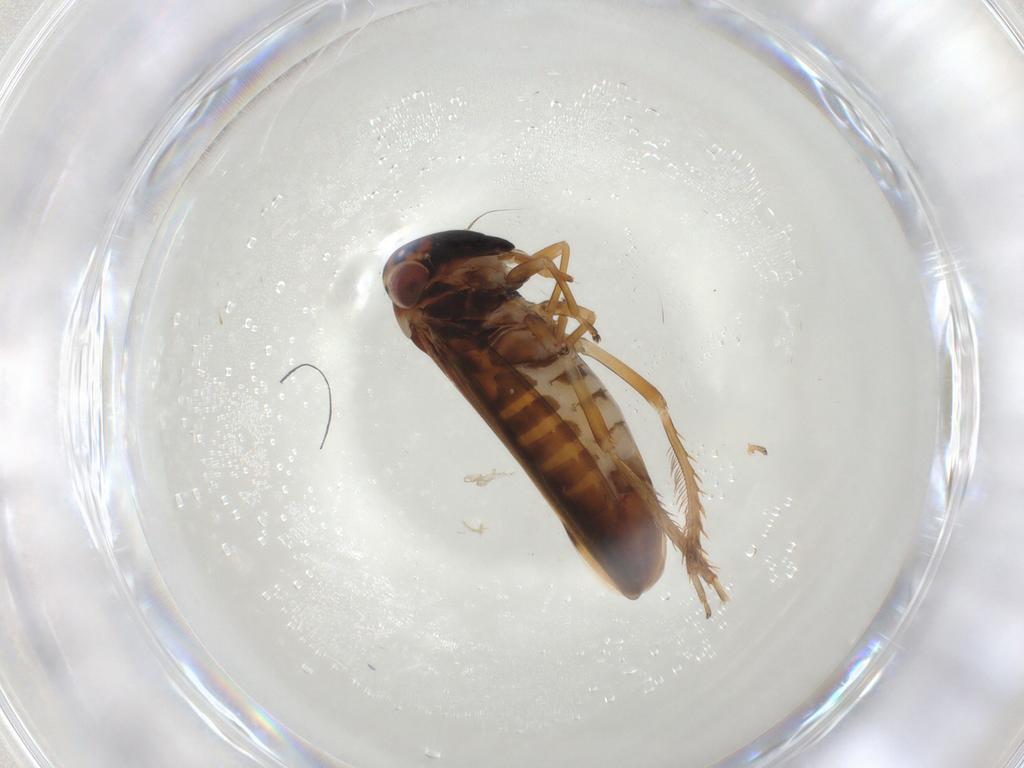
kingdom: Animalia
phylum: Arthropoda
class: Insecta
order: Hemiptera
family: Cicadellidae
